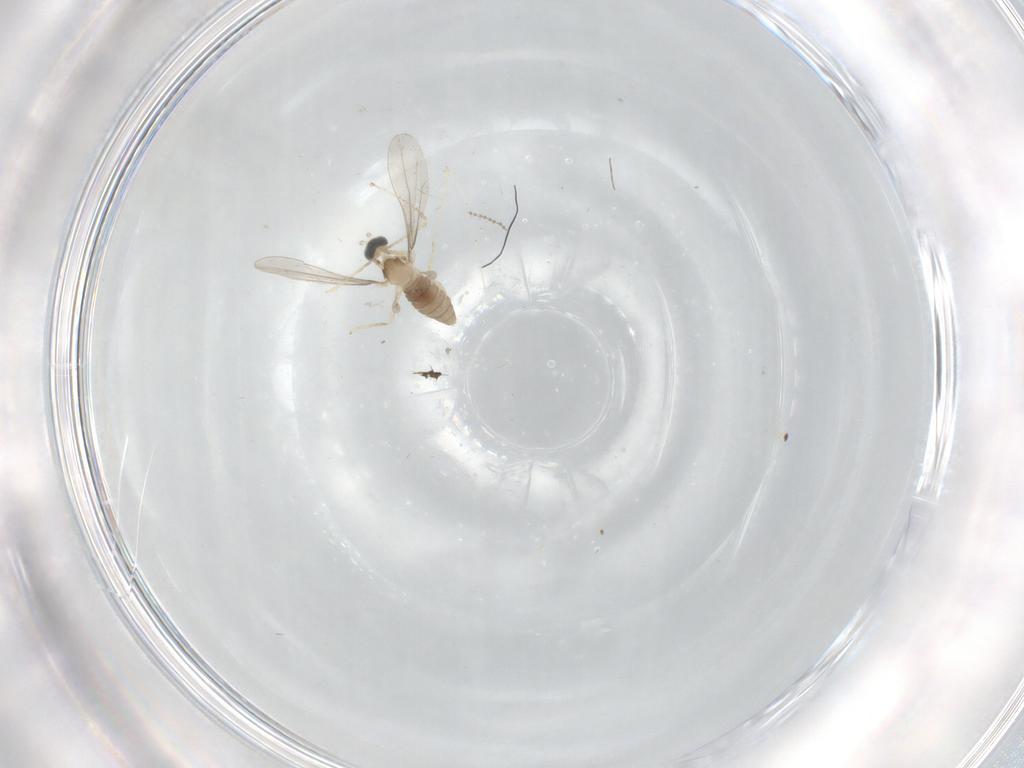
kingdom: Animalia
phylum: Arthropoda
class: Insecta
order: Diptera
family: Cecidomyiidae
